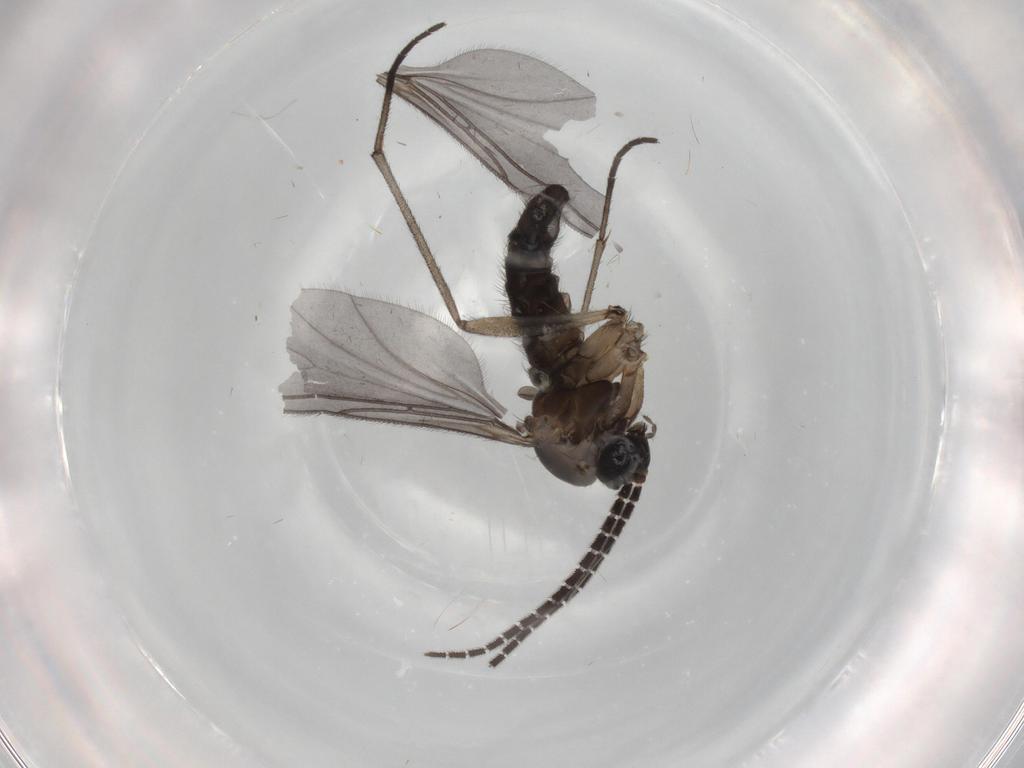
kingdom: Animalia
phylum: Arthropoda
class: Insecta
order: Diptera
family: Sciaridae
